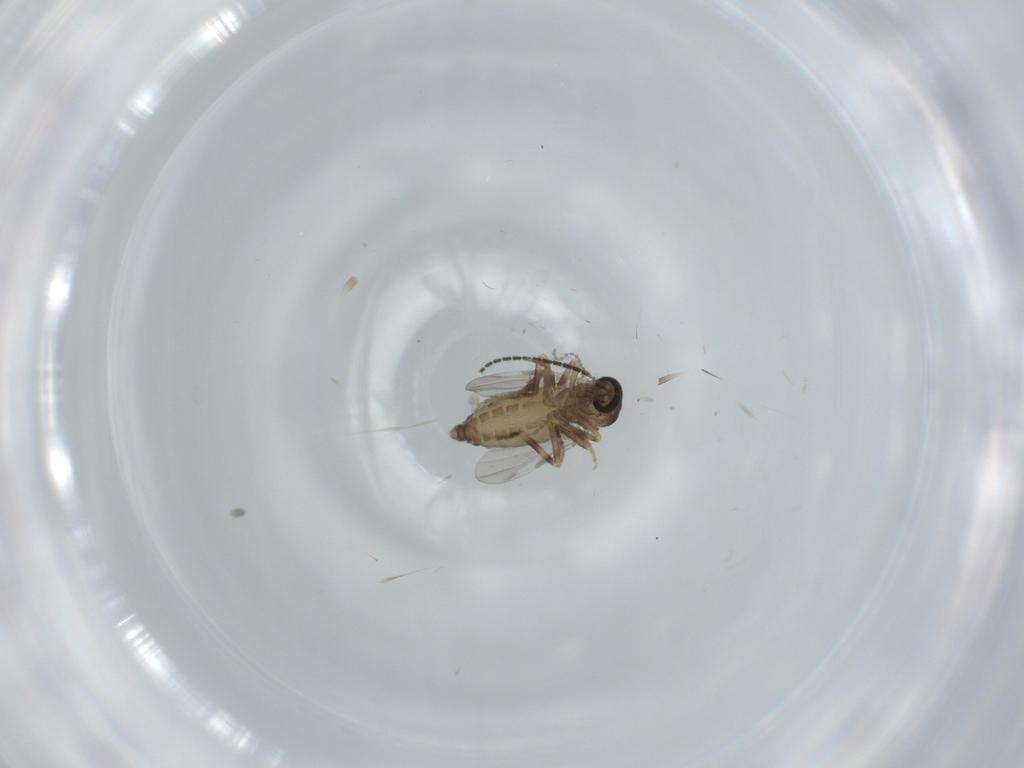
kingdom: Animalia
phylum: Arthropoda
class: Insecta
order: Diptera
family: Ceratopogonidae
